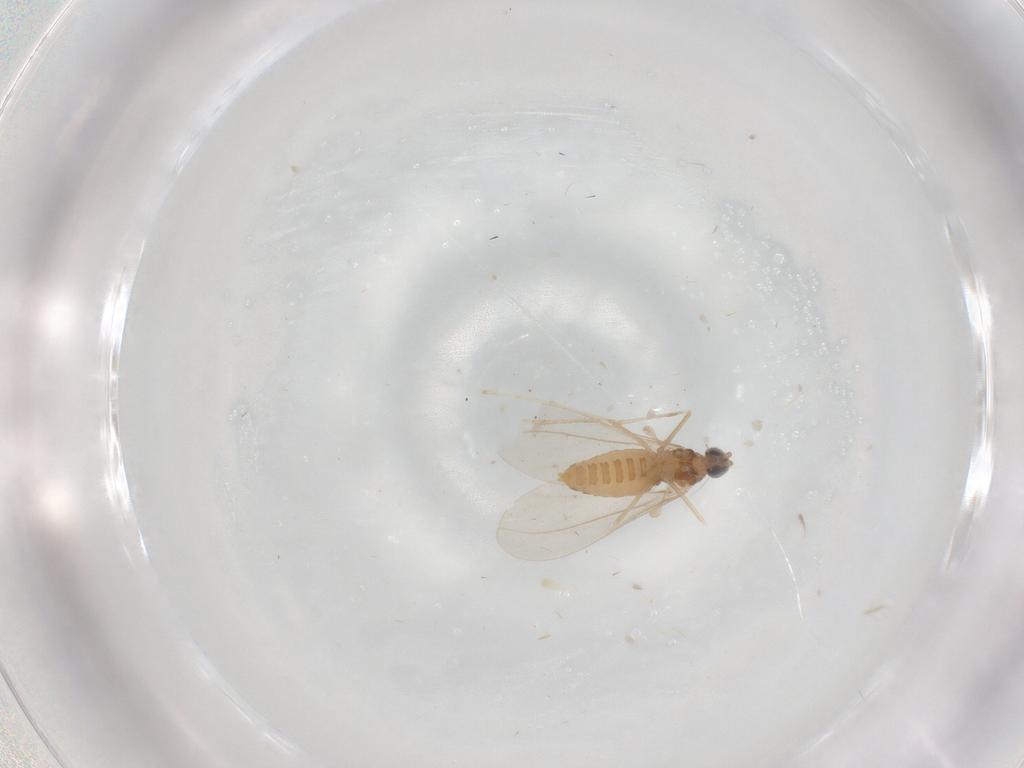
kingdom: Animalia
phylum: Arthropoda
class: Insecta
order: Diptera
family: Cecidomyiidae
